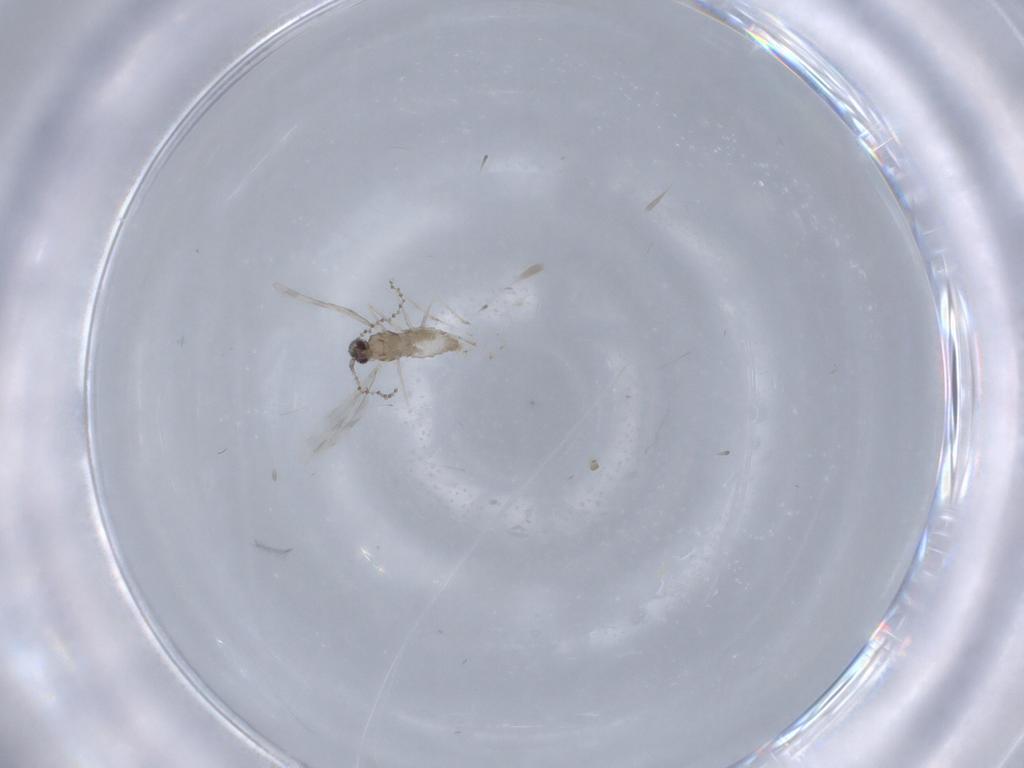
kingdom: Animalia
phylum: Arthropoda
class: Insecta
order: Diptera
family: Cecidomyiidae
